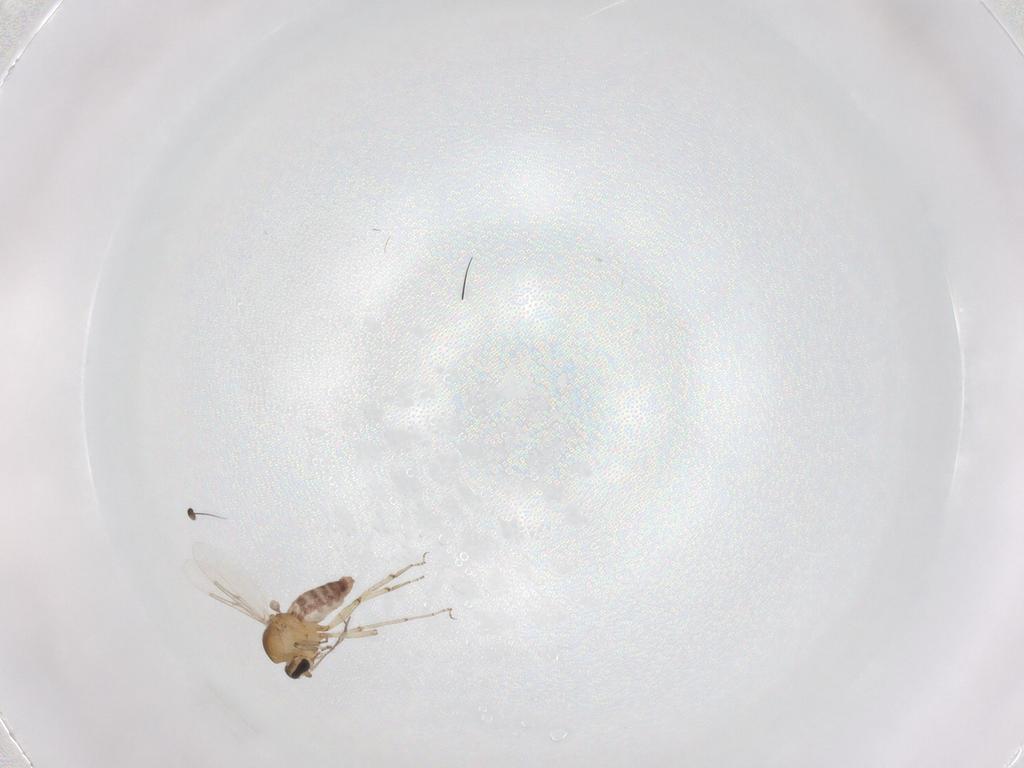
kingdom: Animalia
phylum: Arthropoda
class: Insecta
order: Diptera
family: Ceratopogonidae
